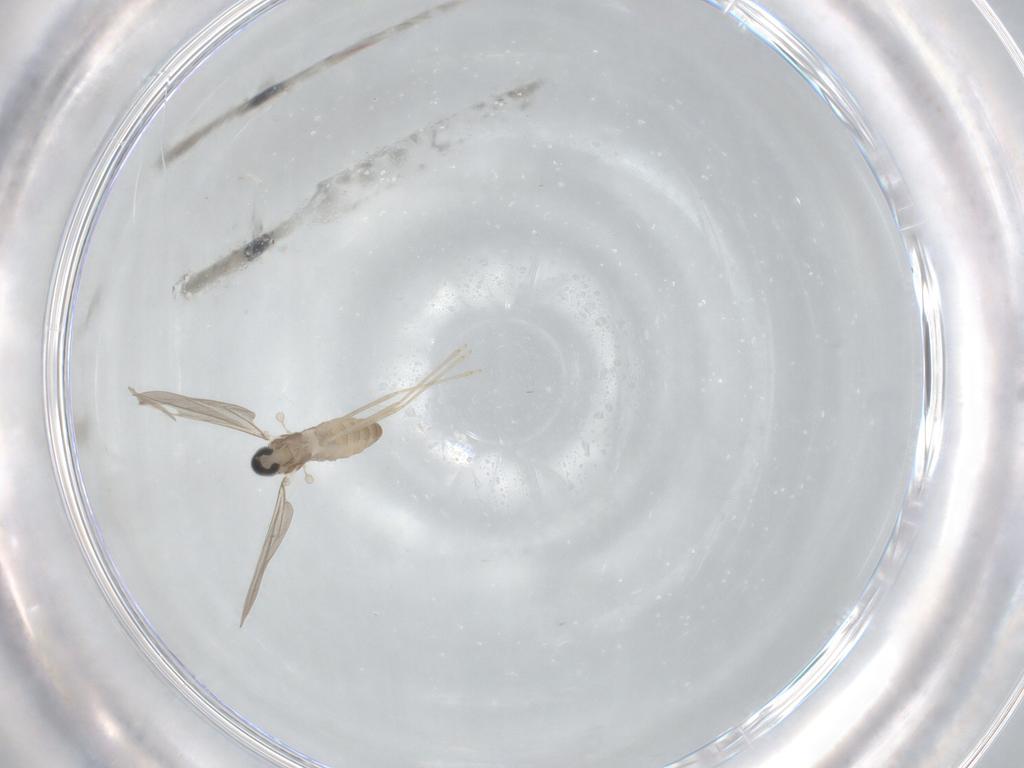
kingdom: Animalia
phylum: Arthropoda
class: Insecta
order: Diptera
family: Cecidomyiidae
